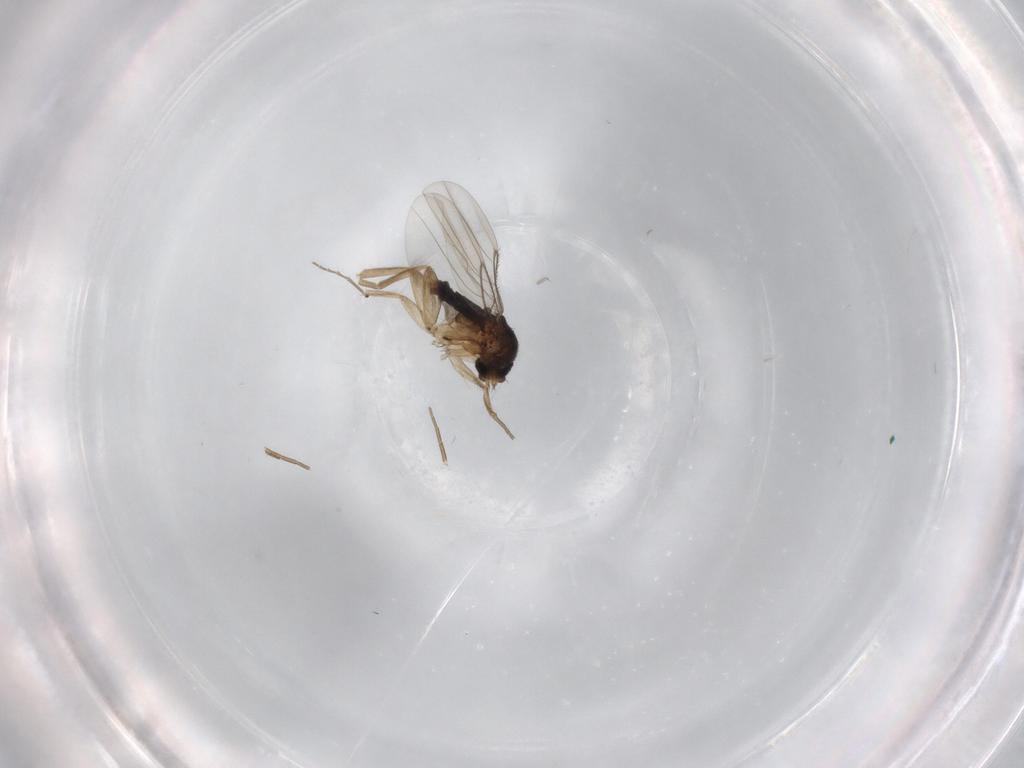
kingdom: Animalia
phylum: Arthropoda
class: Insecta
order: Diptera
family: Phoridae
